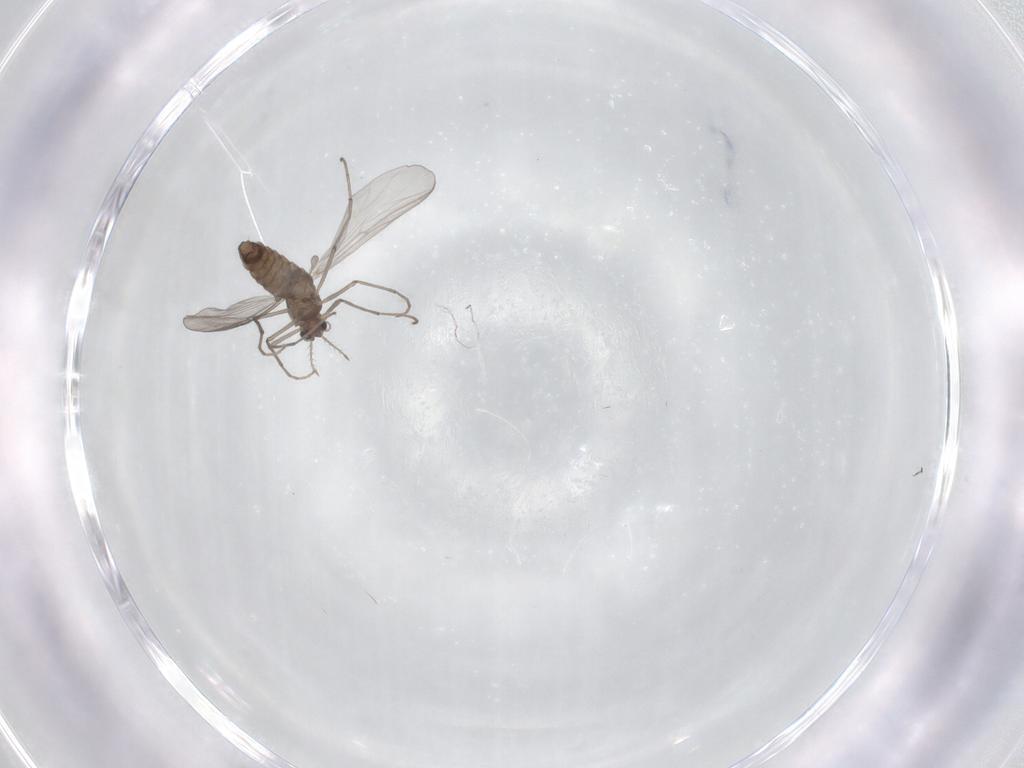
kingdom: Animalia
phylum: Arthropoda
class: Insecta
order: Diptera
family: Chironomidae
